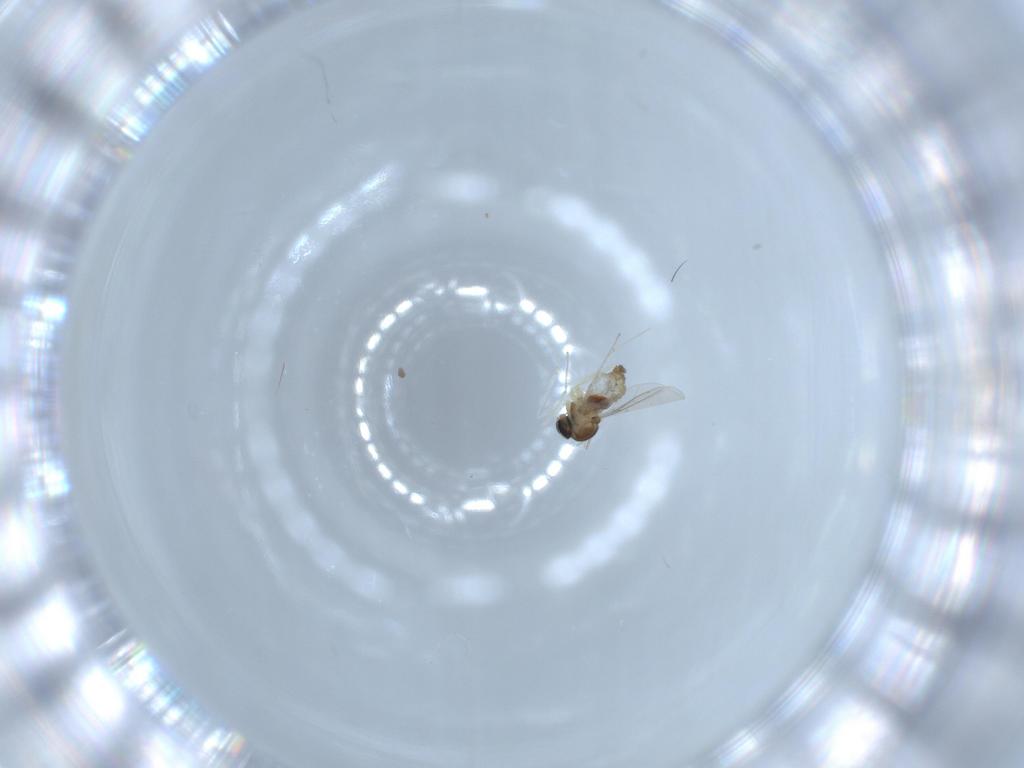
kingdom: Animalia
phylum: Arthropoda
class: Insecta
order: Diptera
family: Cecidomyiidae
